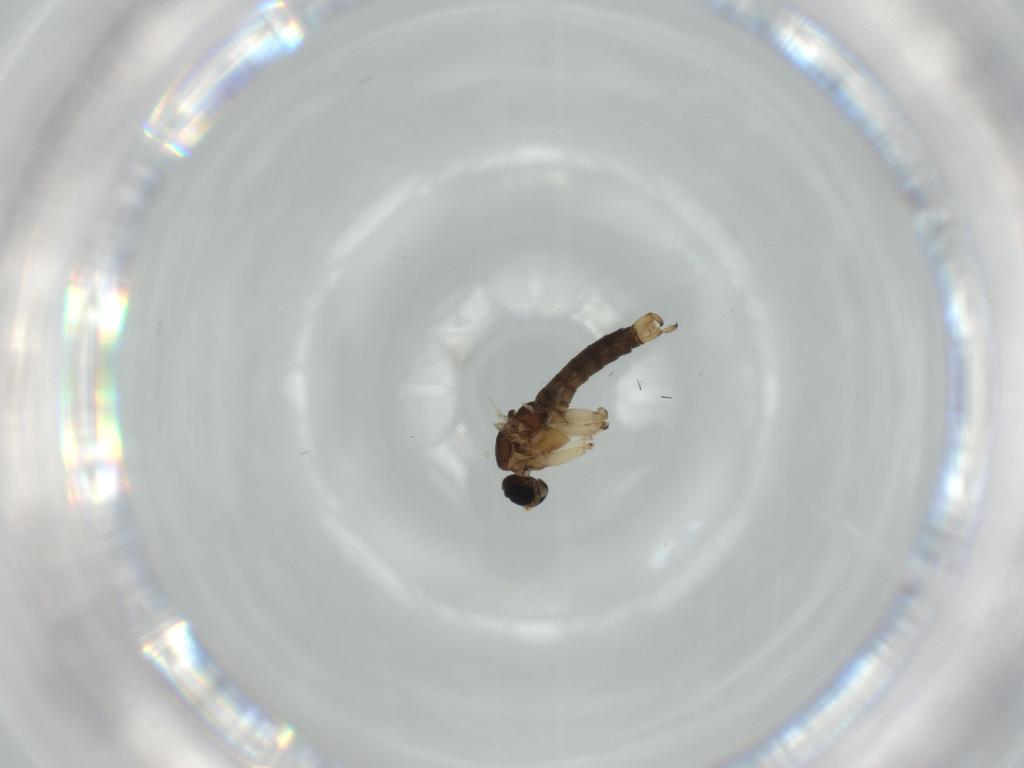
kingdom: Animalia
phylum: Arthropoda
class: Insecta
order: Diptera
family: Sciaridae
